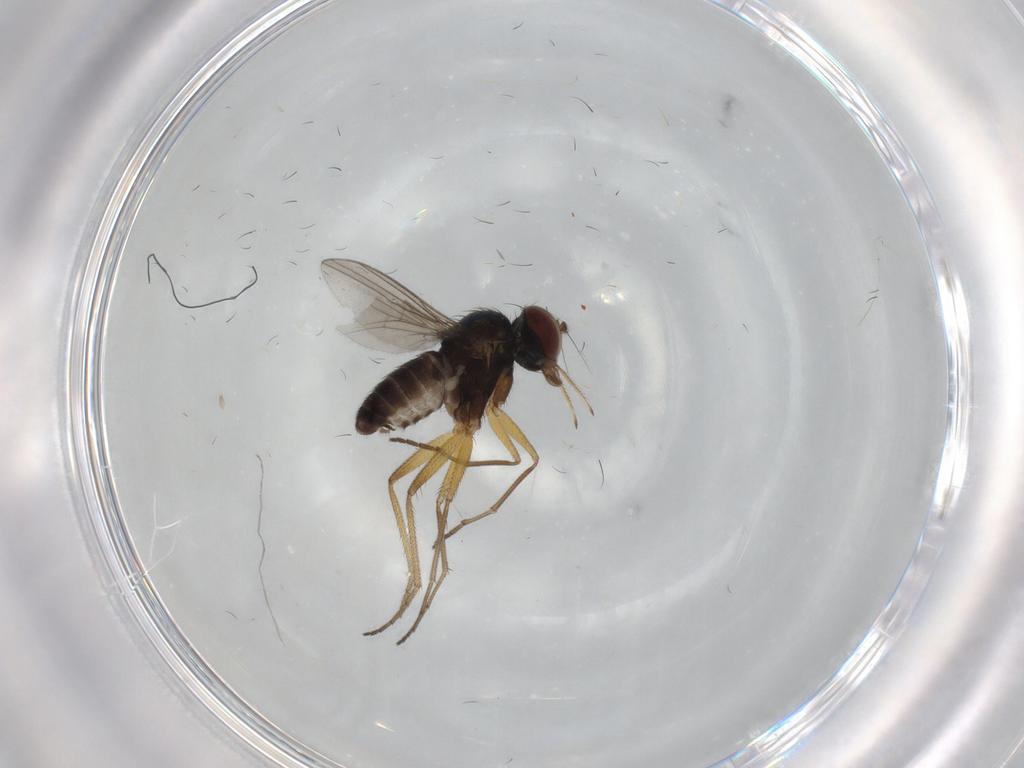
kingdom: Animalia
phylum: Arthropoda
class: Insecta
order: Diptera
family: Dolichopodidae
